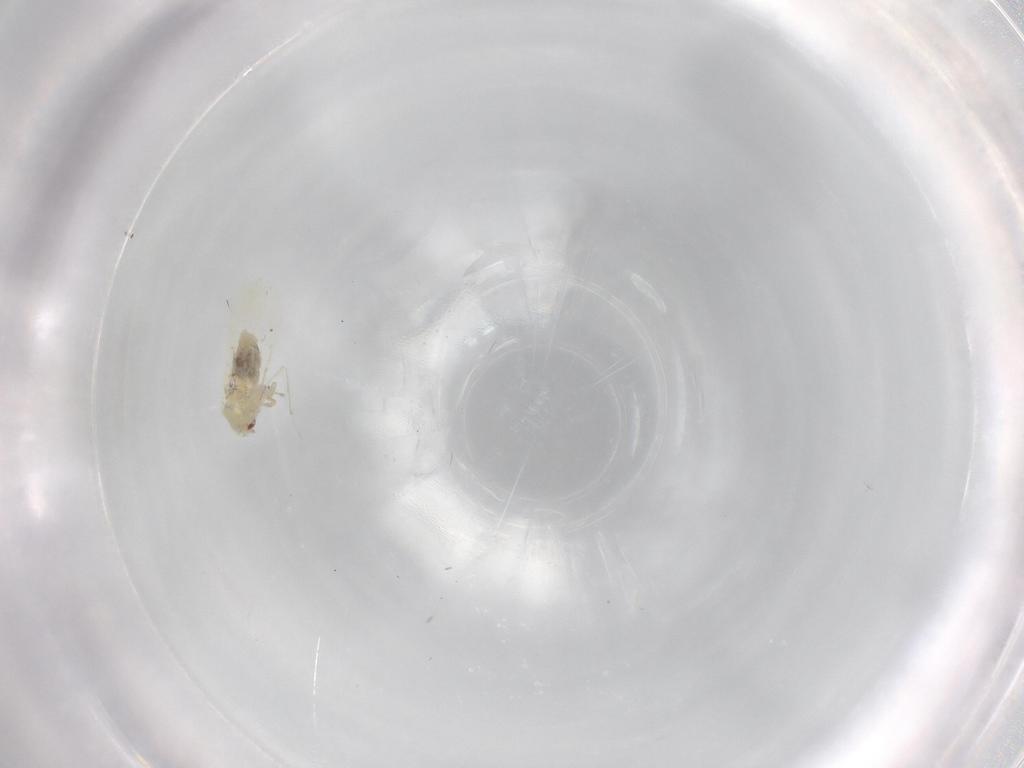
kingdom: Animalia
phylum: Arthropoda
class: Insecta
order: Hemiptera
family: Aleyrodidae
